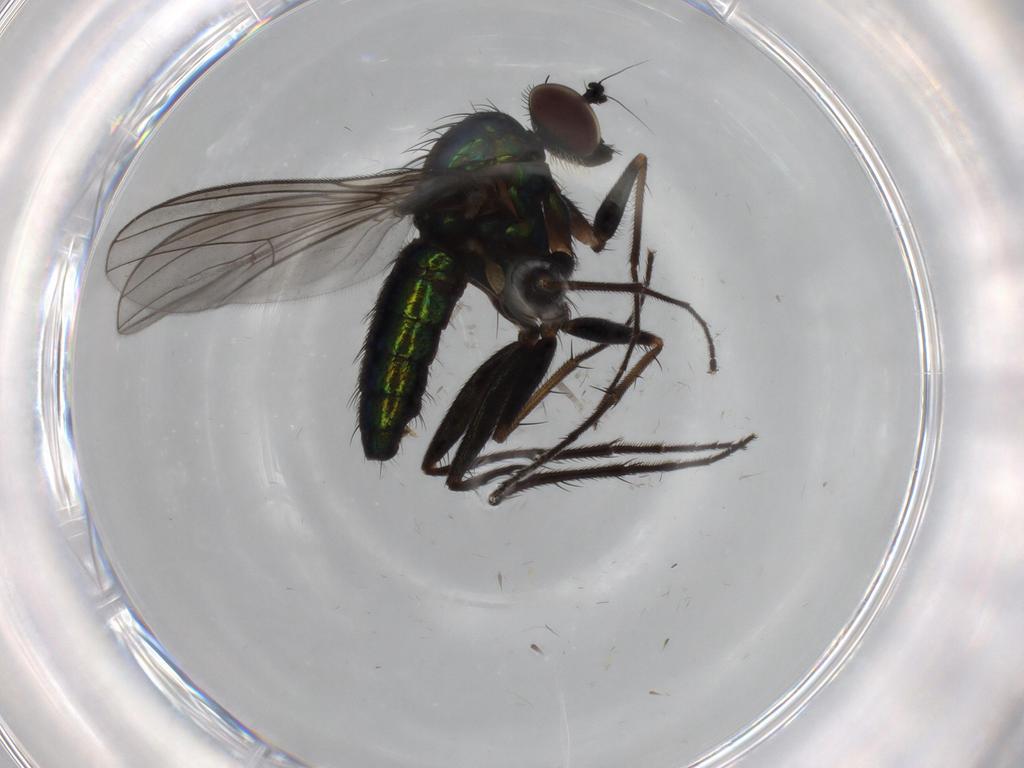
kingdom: Animalia
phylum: Arthropoda
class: Insecta
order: Diptera
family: Dolichopodidae
